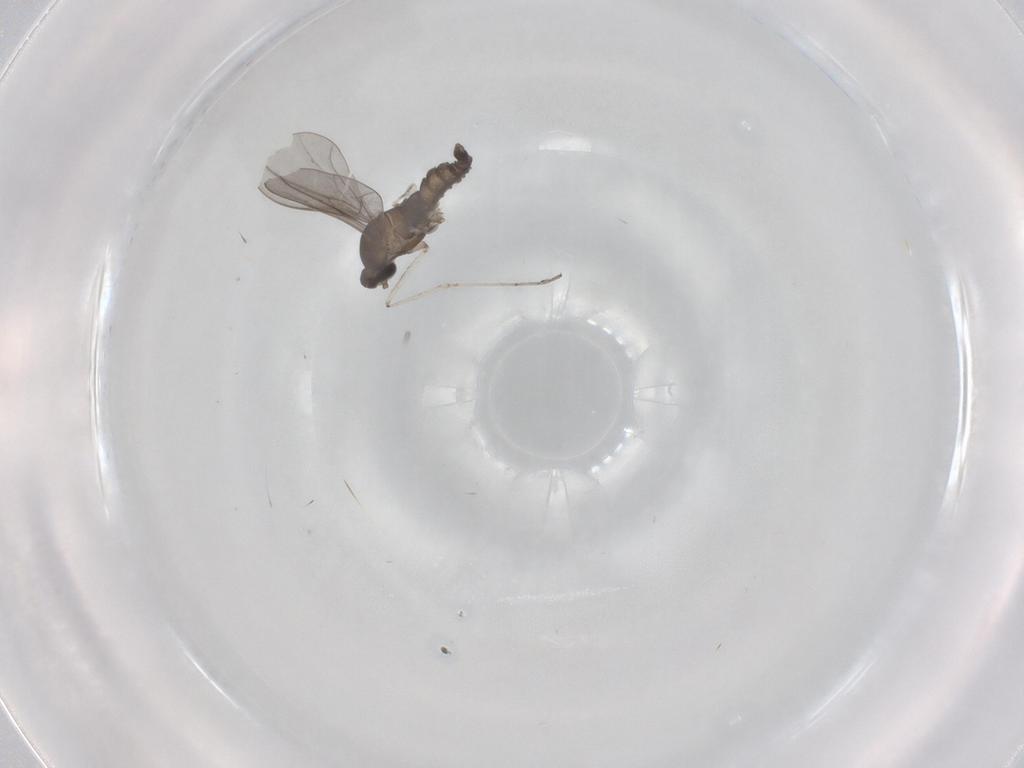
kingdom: Animalia
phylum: Arthropoda
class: Insecta
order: Diptera
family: Cecidomyiidae
